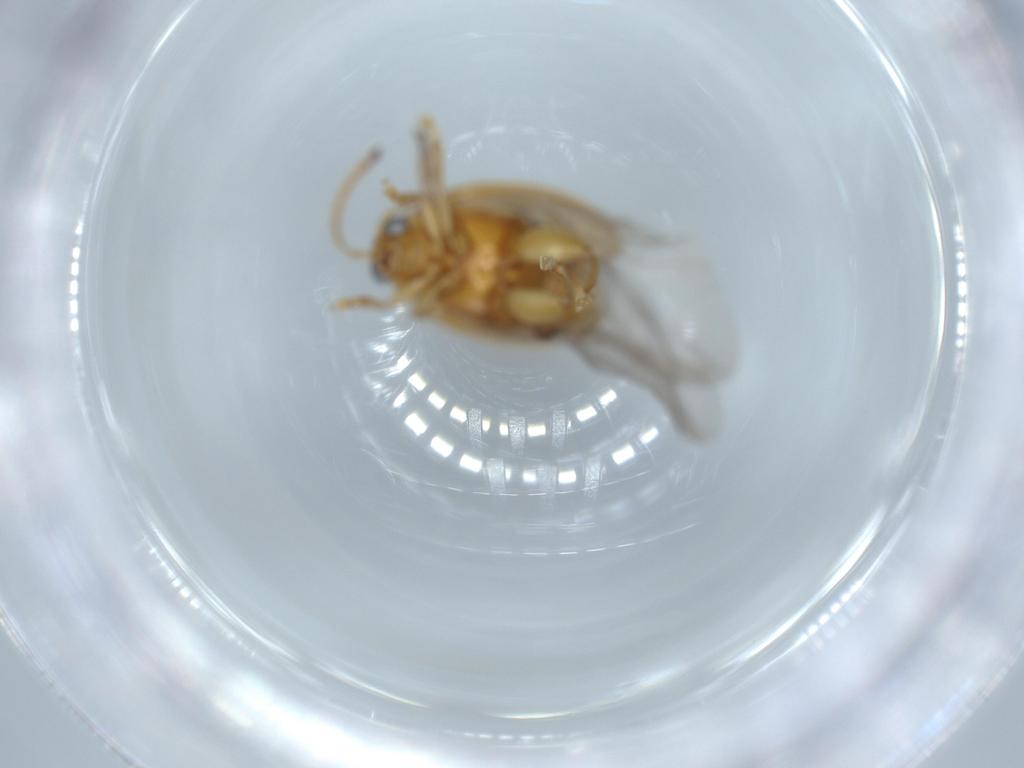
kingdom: Animalia
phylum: Arthropoda
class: Insecta
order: Coleoptera
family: Chrysomelidae
